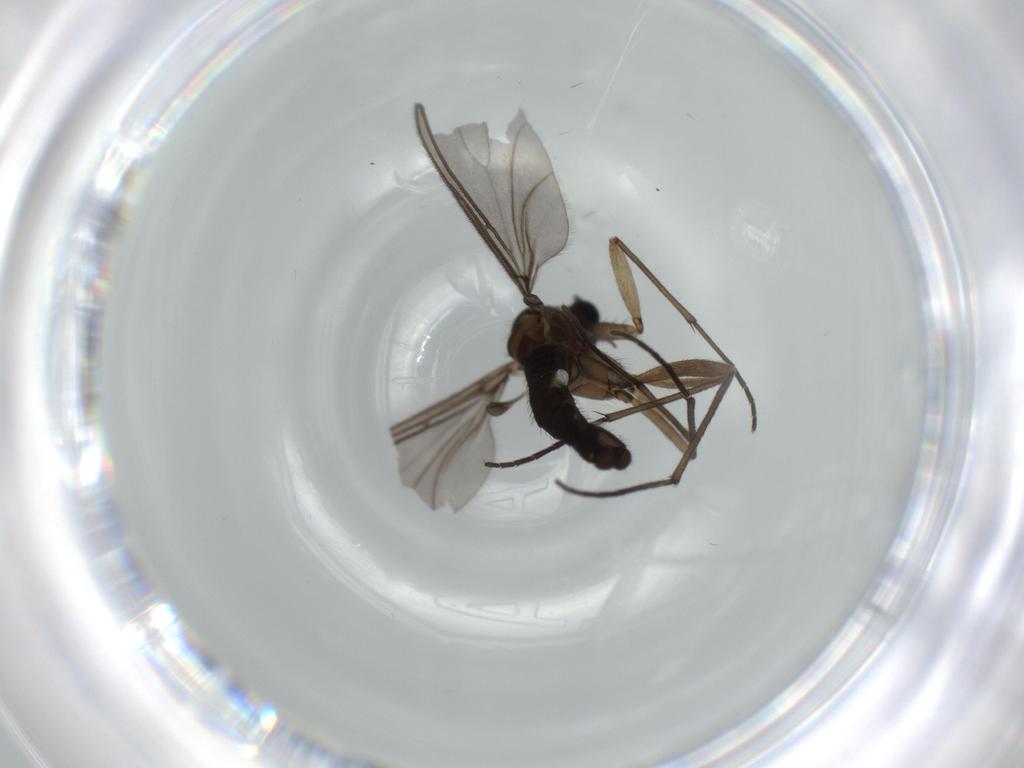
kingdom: Animalia
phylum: Arthropoda
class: Insecta
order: Diptera
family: Sciaridae
